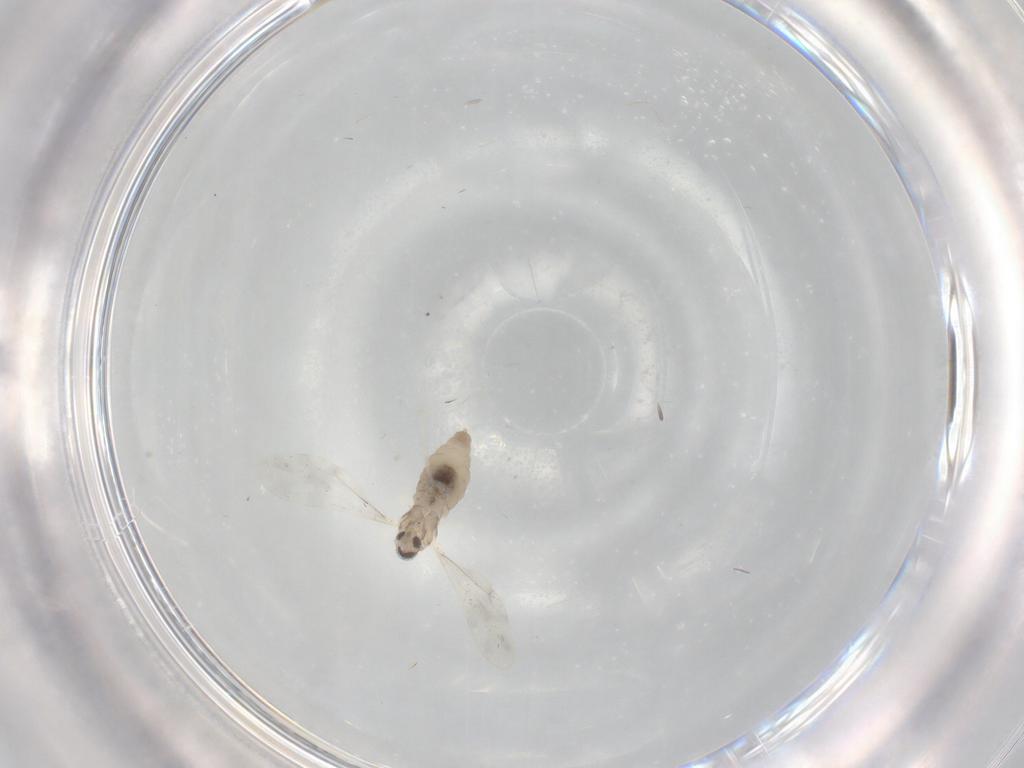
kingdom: Animalia
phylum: Arthropoda
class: Insecta
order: Diptera
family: Cecidomyiidae
